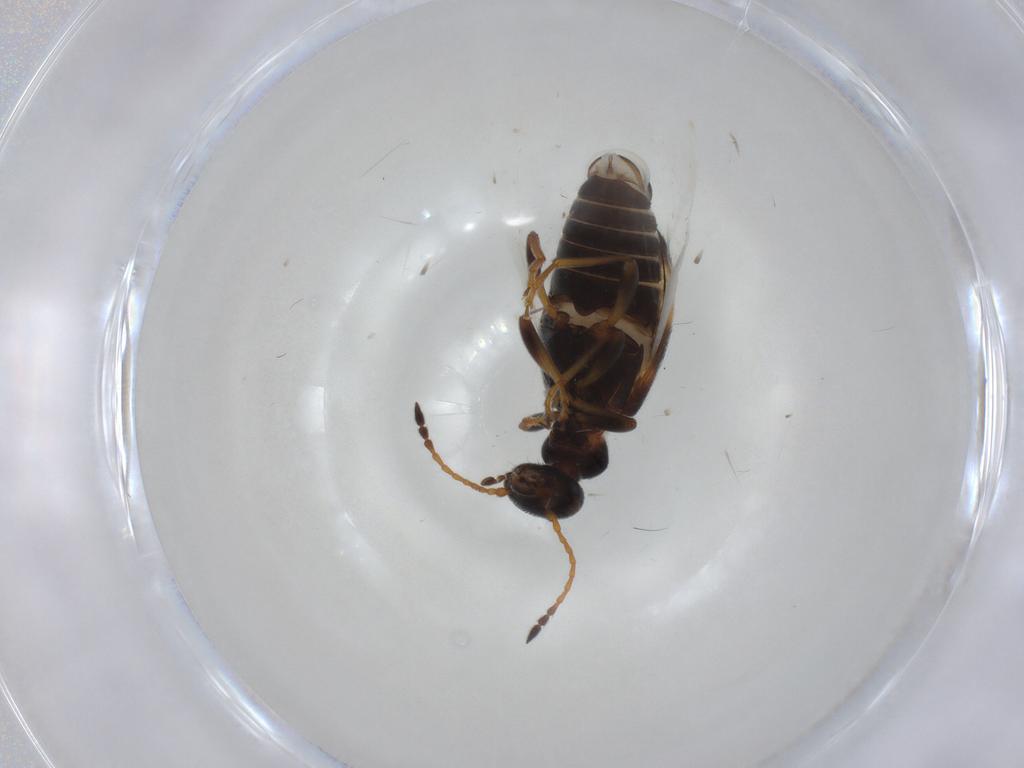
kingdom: Animalia
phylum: Arthropoda
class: Insecta
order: Coleoptera
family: Anthicidae
